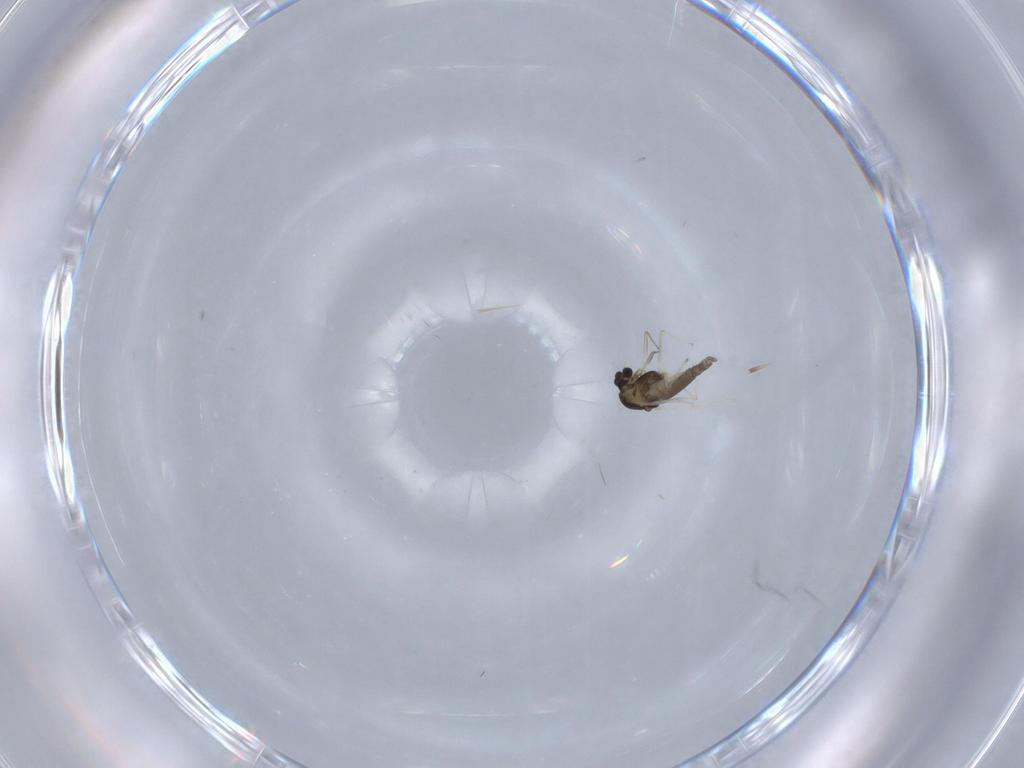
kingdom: Animalia
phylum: Arthropoda
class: Insecta
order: Diptera
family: Chironomidae
